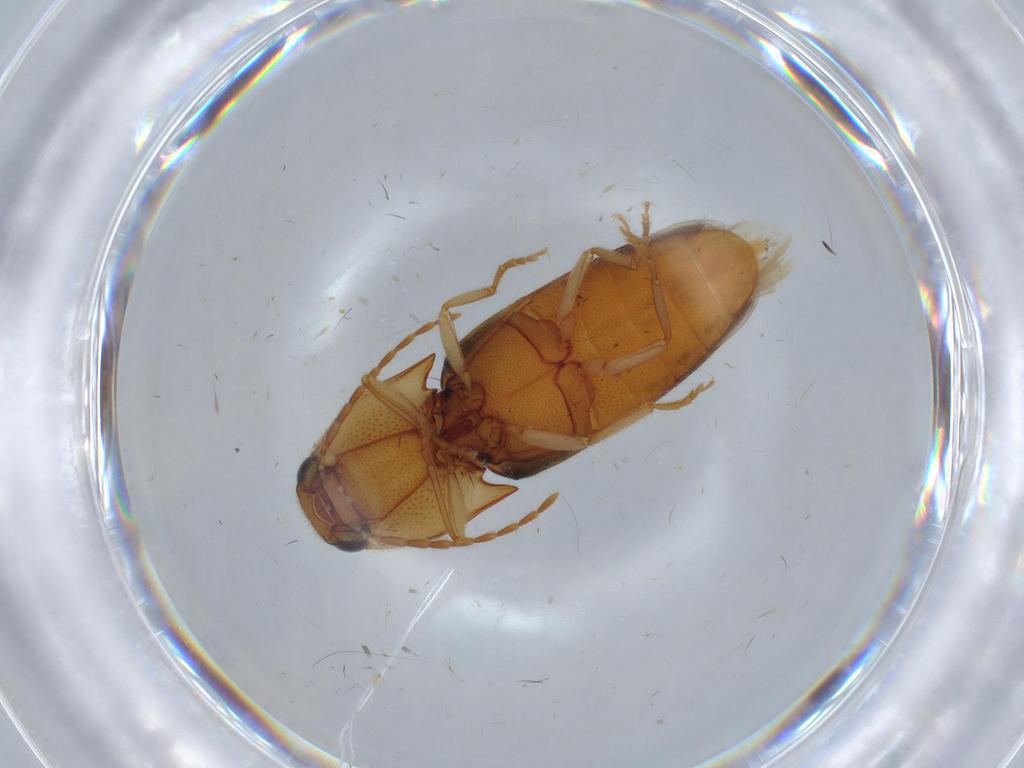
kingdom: Animalia
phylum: Arthropoda
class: Insecta
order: Coleoptera
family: Elateridae
